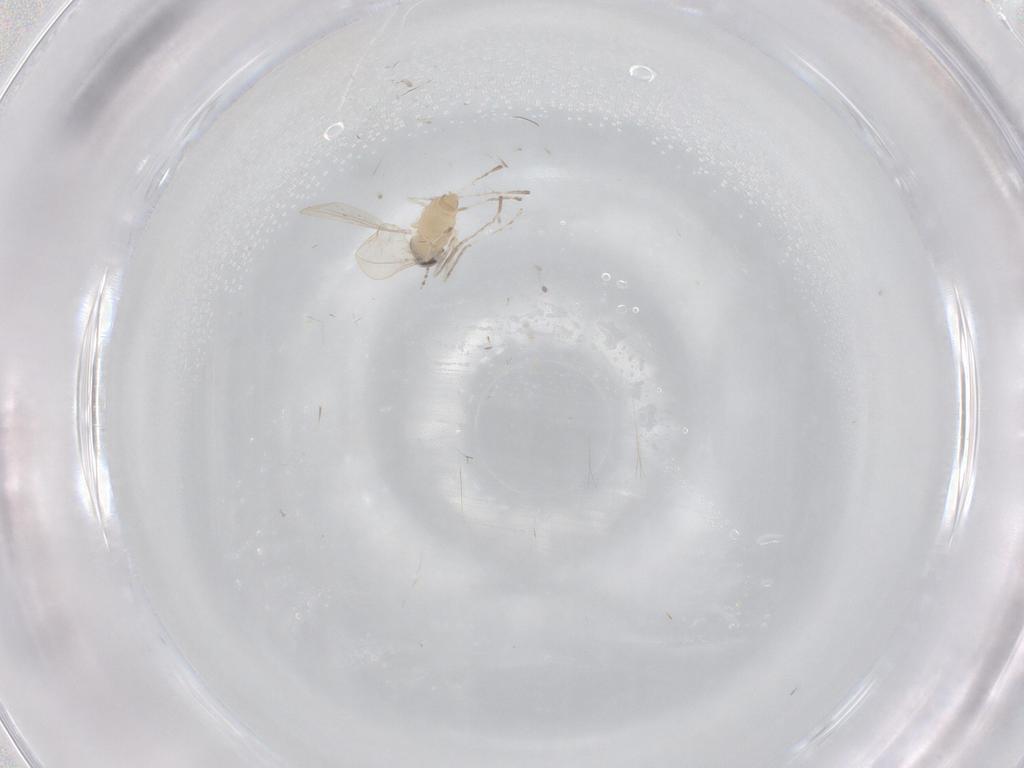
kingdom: Animalia
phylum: Arthropoda
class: Insecta
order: Diptera
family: Cecidomyiidae
